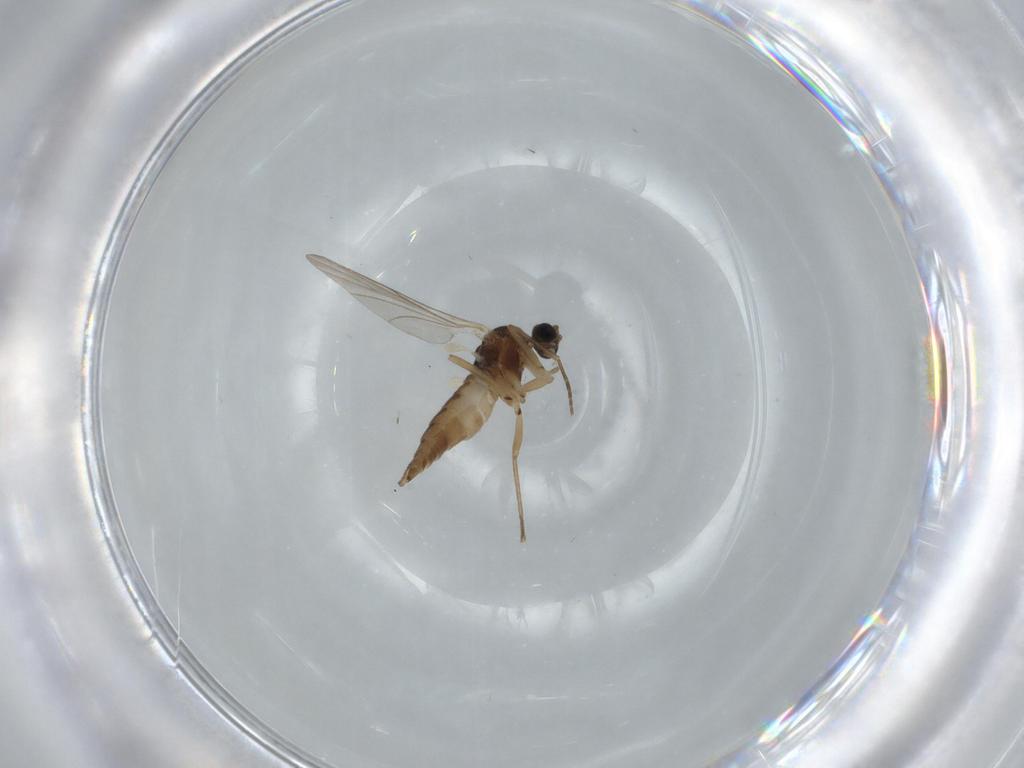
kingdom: Animalia
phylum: Arthropoda
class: Insecta
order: Diptera
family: Sciaridae
